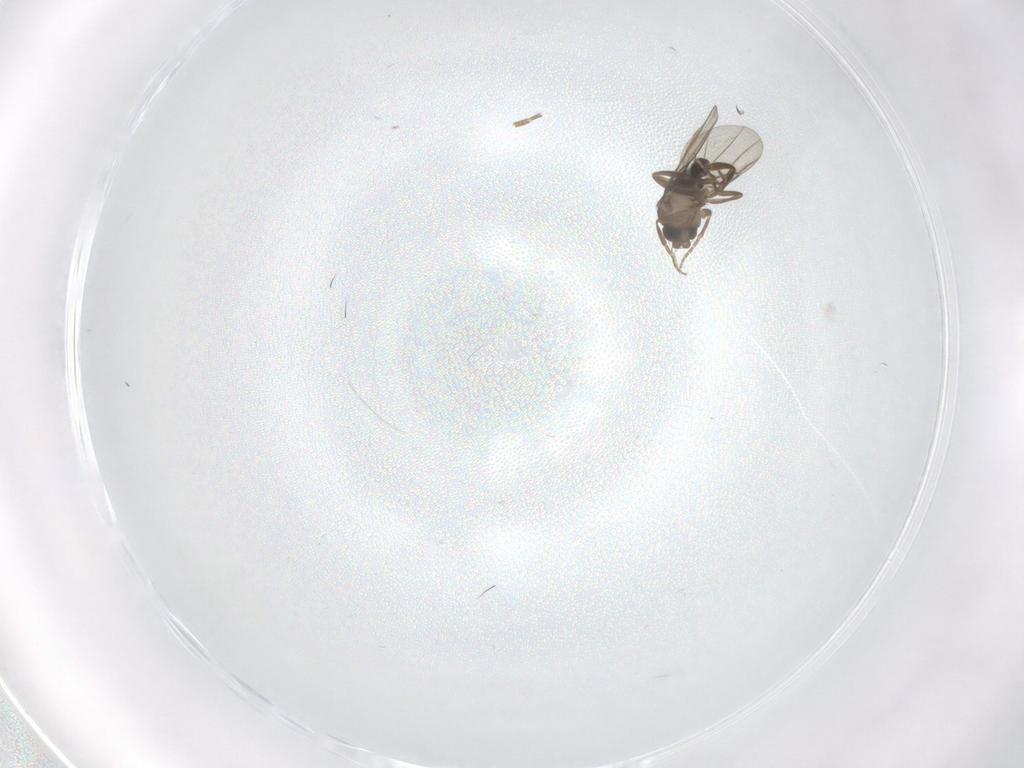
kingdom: Animalia
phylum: Arthropoda
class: Insecta
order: Diptera
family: Phoridae
